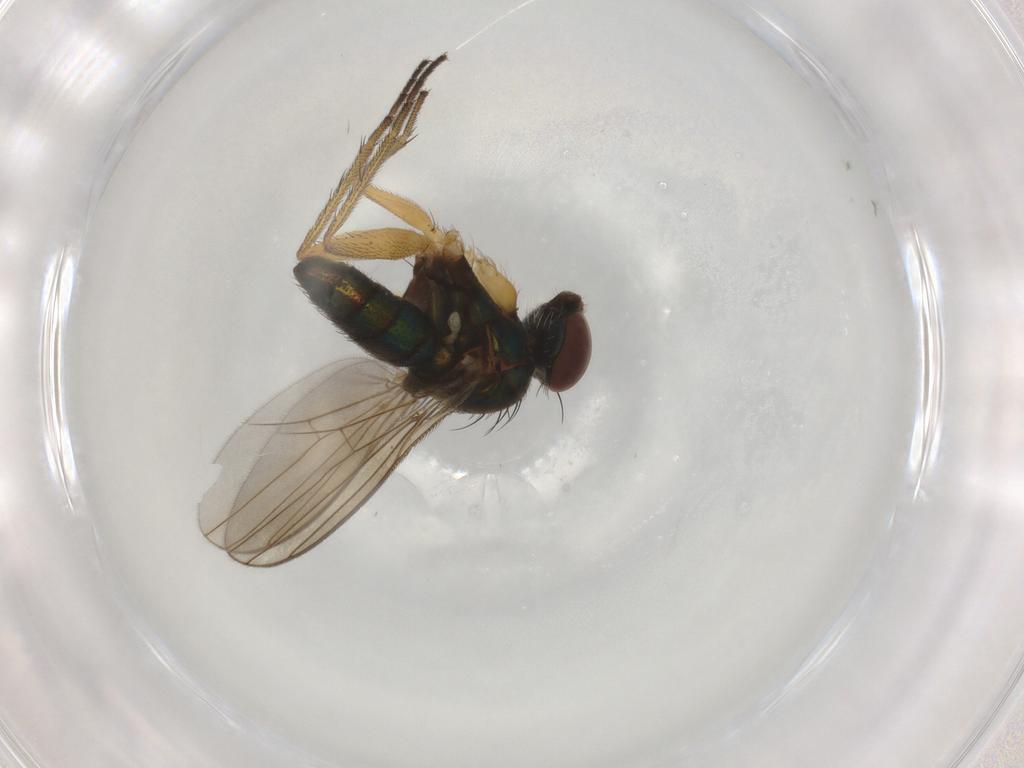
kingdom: Animalia
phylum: Arthropoda
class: Insecta
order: Diptera
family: Dolichopodidae
